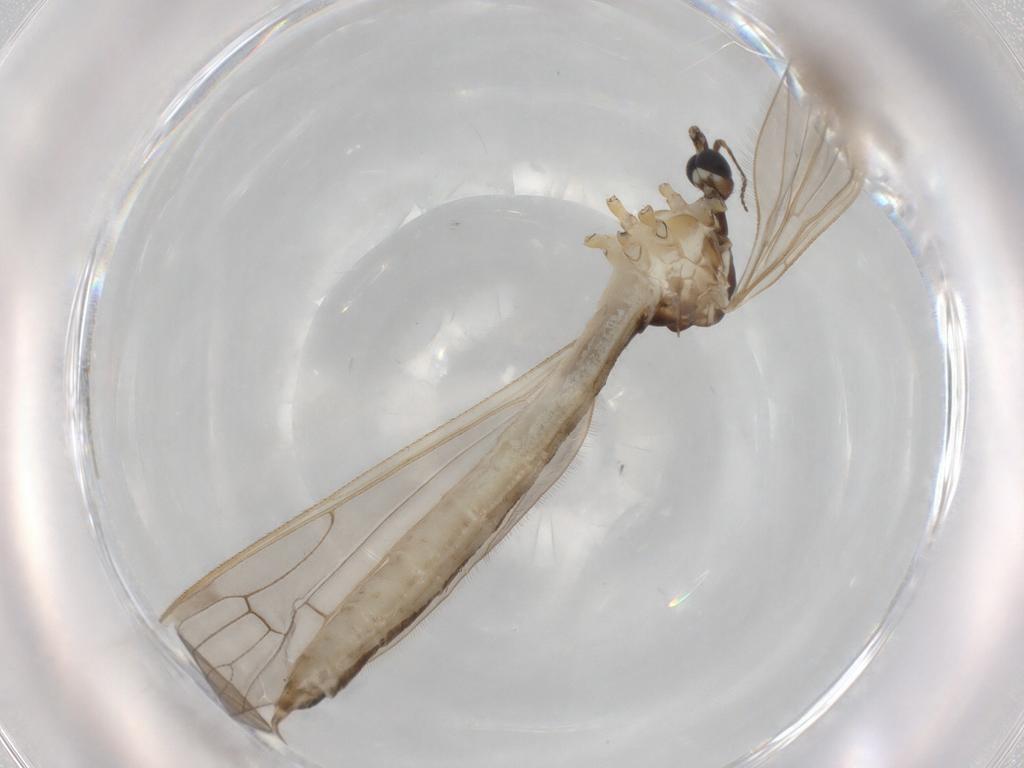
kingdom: Animalia
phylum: Arthropoda
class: Insecta
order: Diptera
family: Limoniidae
